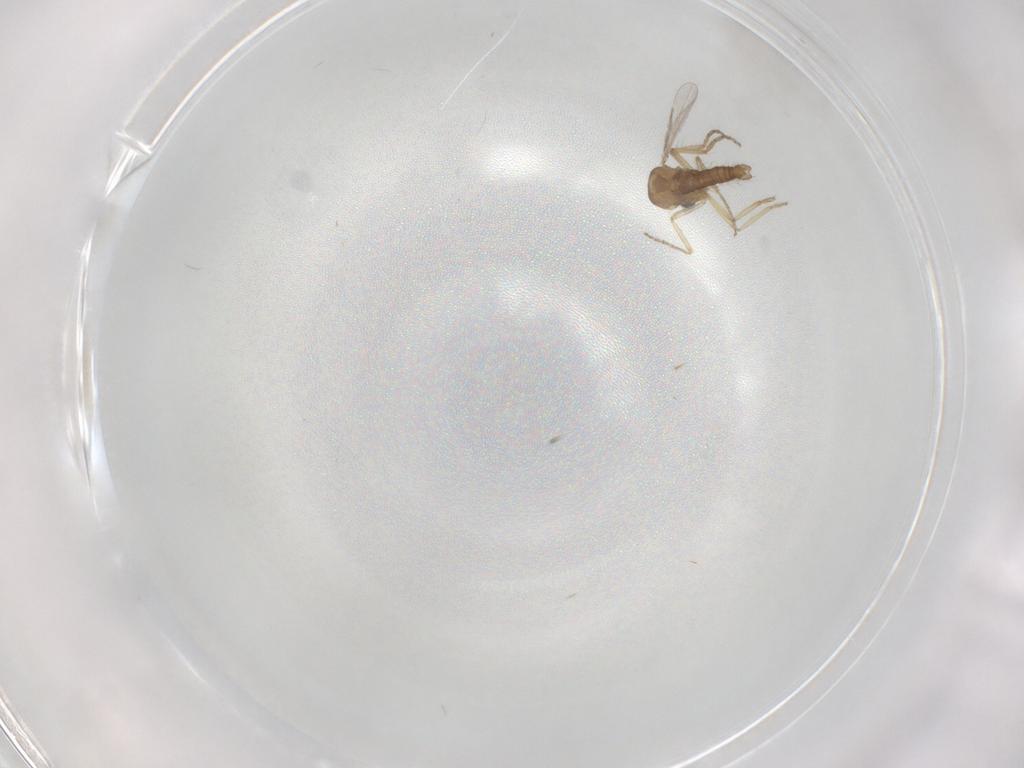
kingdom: Animalia
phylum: Arthropoda
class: Insecta
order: Diptera
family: Ceratopogonidae
